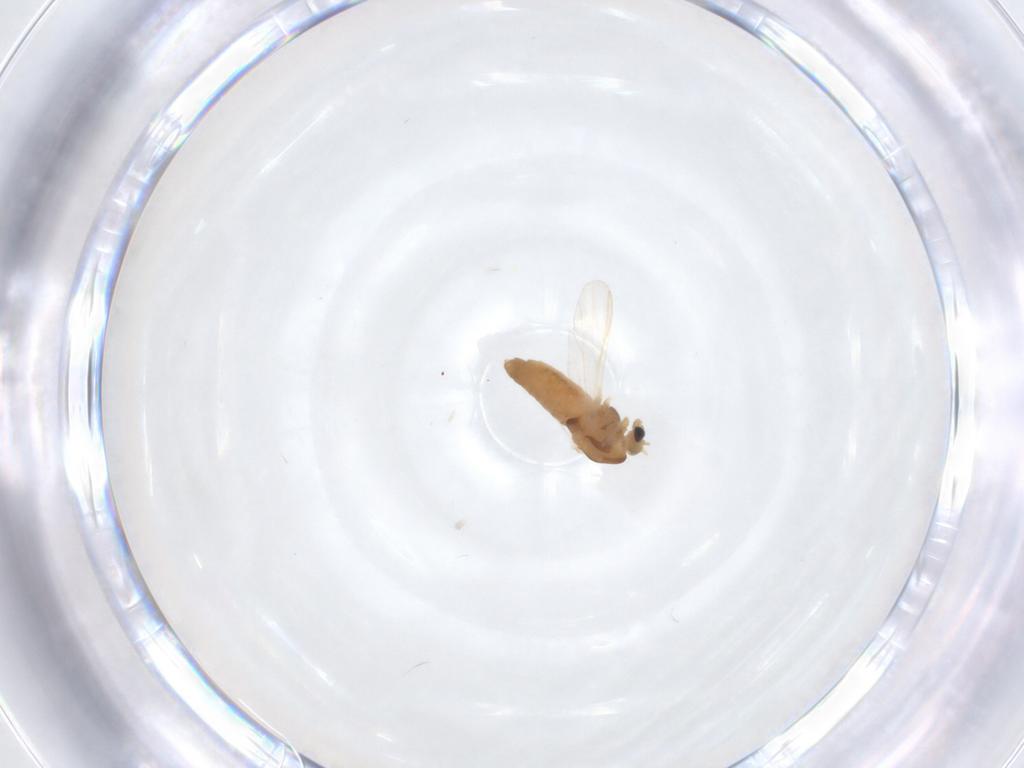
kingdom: Animalia
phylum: Arthropoda
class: Insecta
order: Diptera
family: Chironomidae
